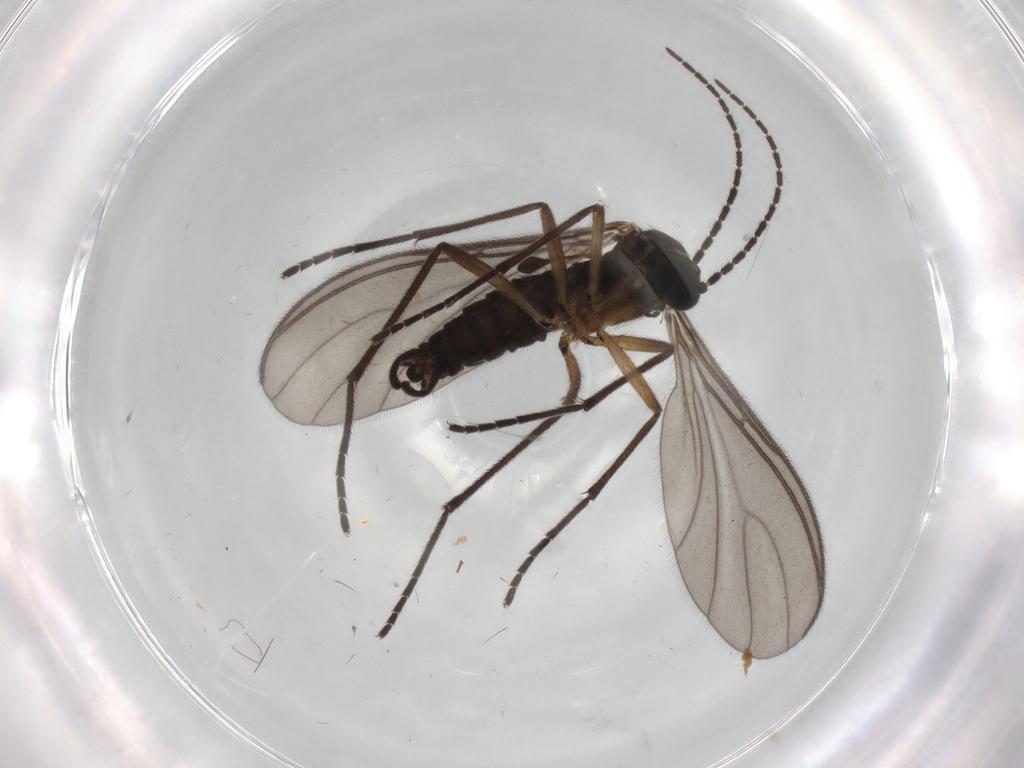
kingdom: Animalia
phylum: Arthropoda
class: Insecta
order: Diptera
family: Sciaridae
